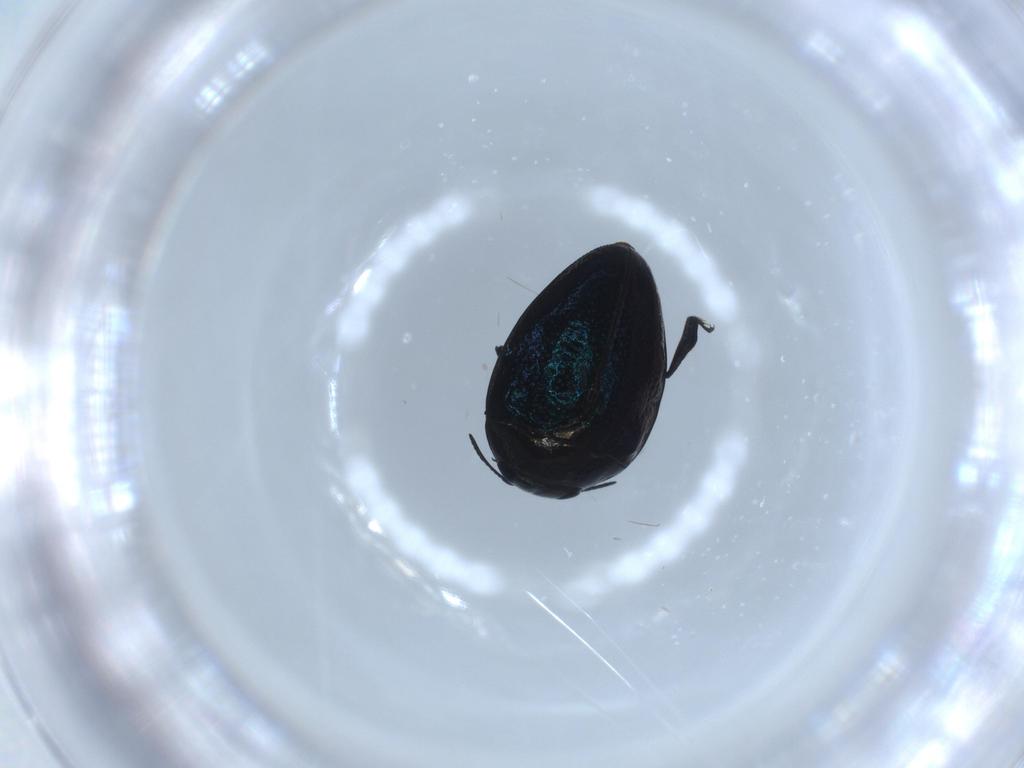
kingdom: Animalia
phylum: Arthropoda
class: Insecta
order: Coleoptera
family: Buprestidae
